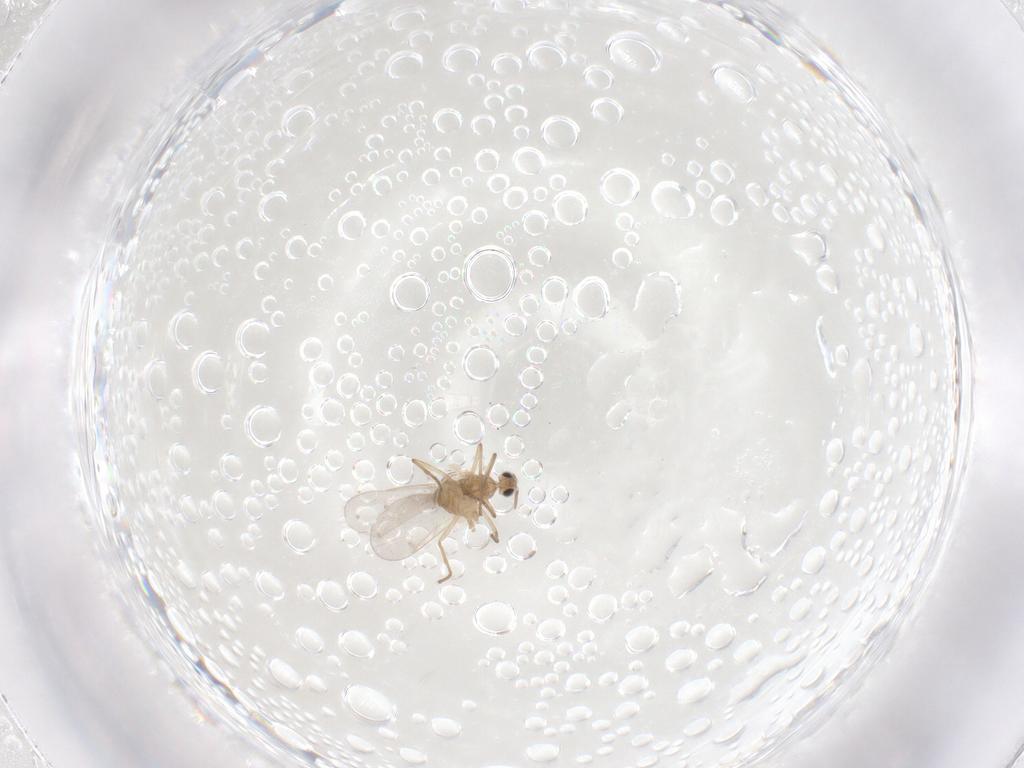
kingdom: Animalia
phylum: Arthropoda
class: Insecta
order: Diptera
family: Cecidomyiidae
